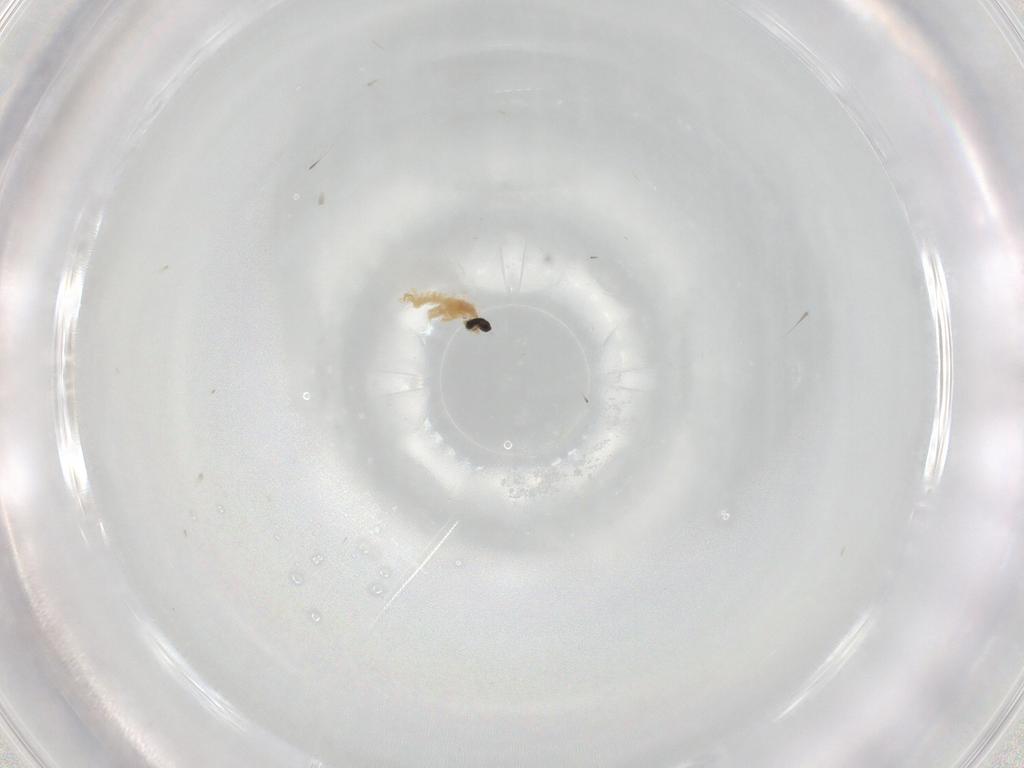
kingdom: Animalia
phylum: Arthropoda
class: Insecta
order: Diptera
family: Cecidomyiidae
